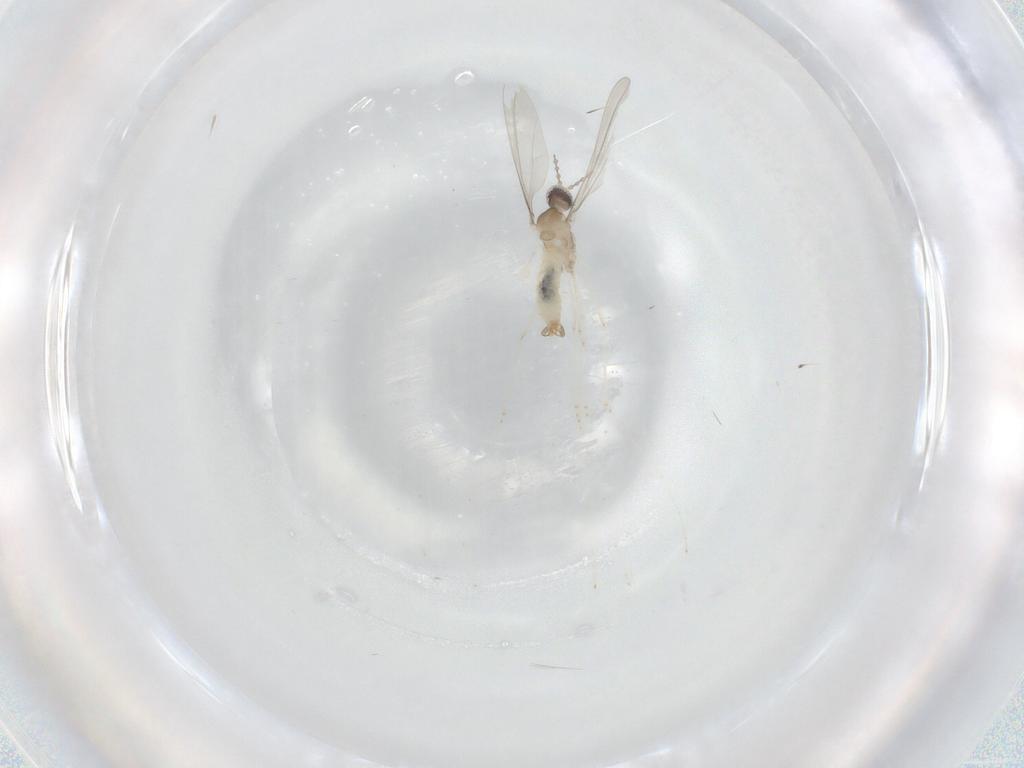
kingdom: Animalia
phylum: Arthropoda
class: Insecta
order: Diptera
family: Cecidomyiidae
